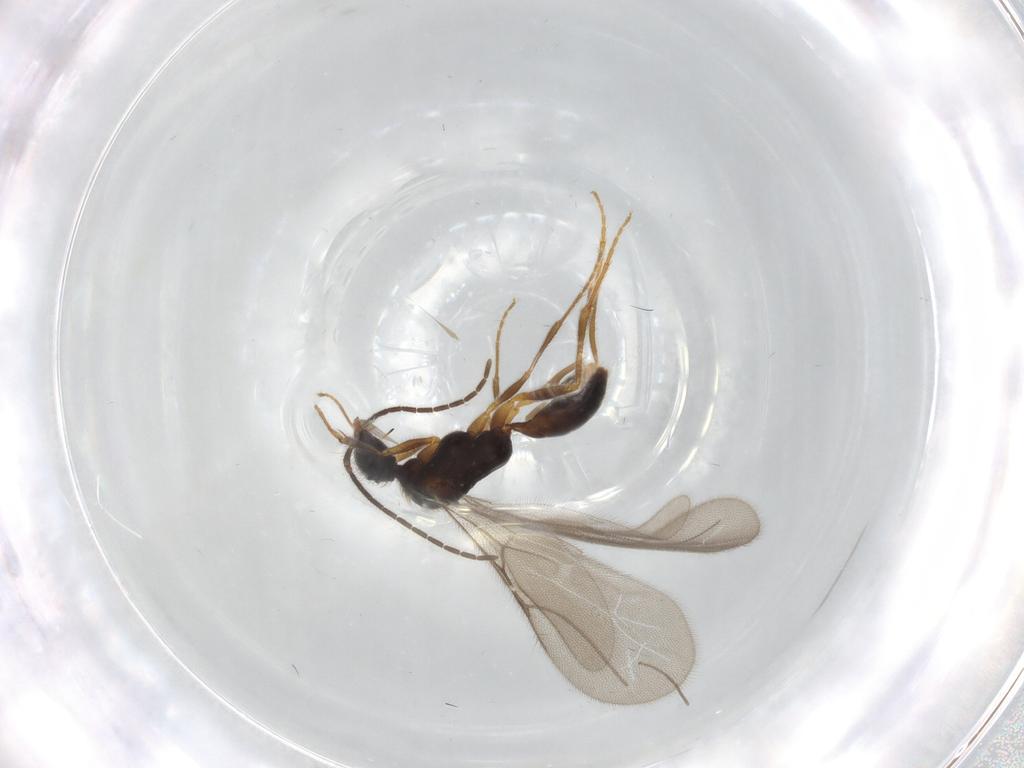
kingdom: Animalia
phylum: Arthropoda
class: Insecta
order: Hymenoptera
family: Bethylidae
